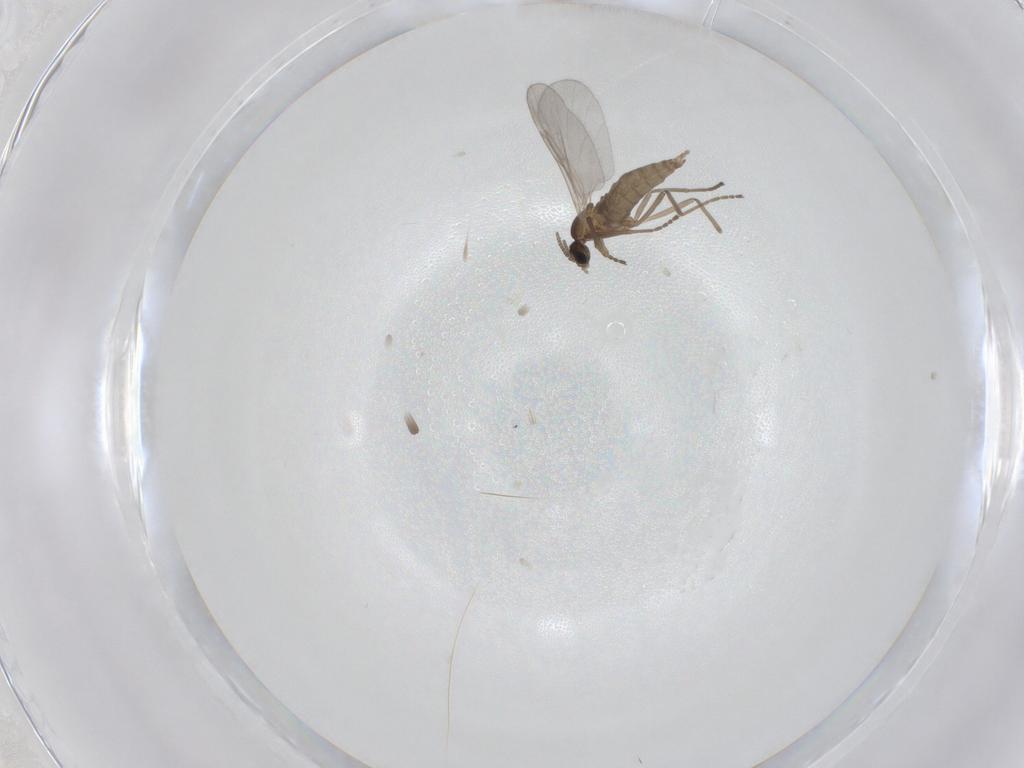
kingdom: Animalia
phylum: Arthropoda
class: Insecta
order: Diptera
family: Cecidomyiidae
